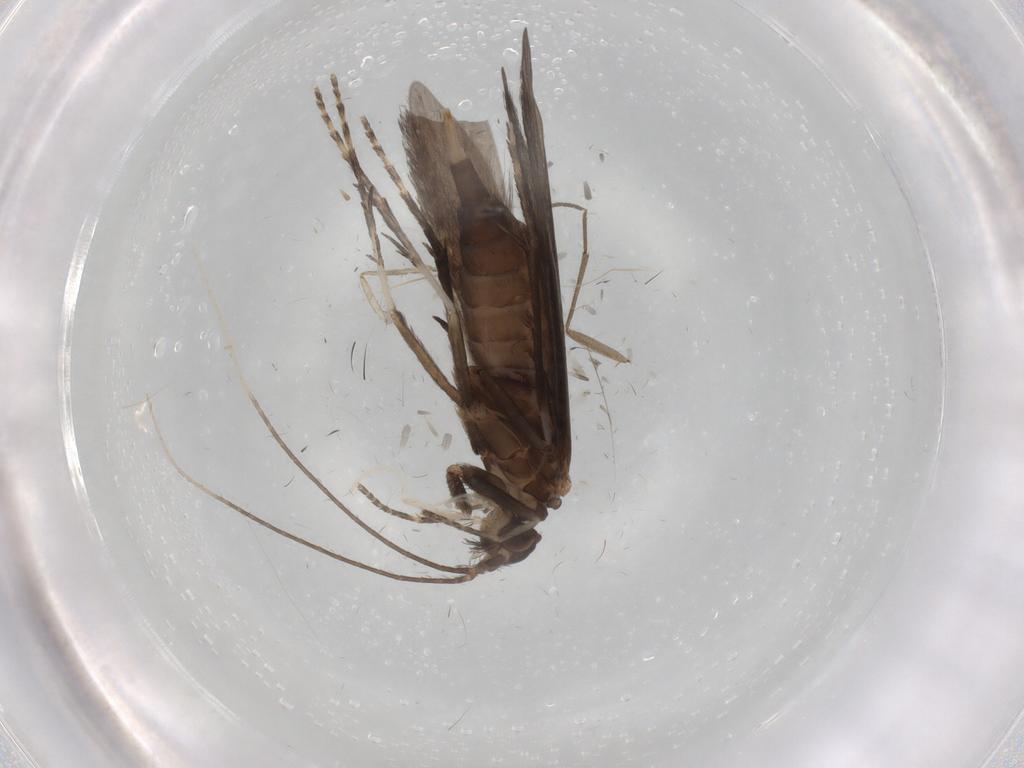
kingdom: Animalia
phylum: Arthropoda
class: Insecta
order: Trichoptera
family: Xiphocentronidae
